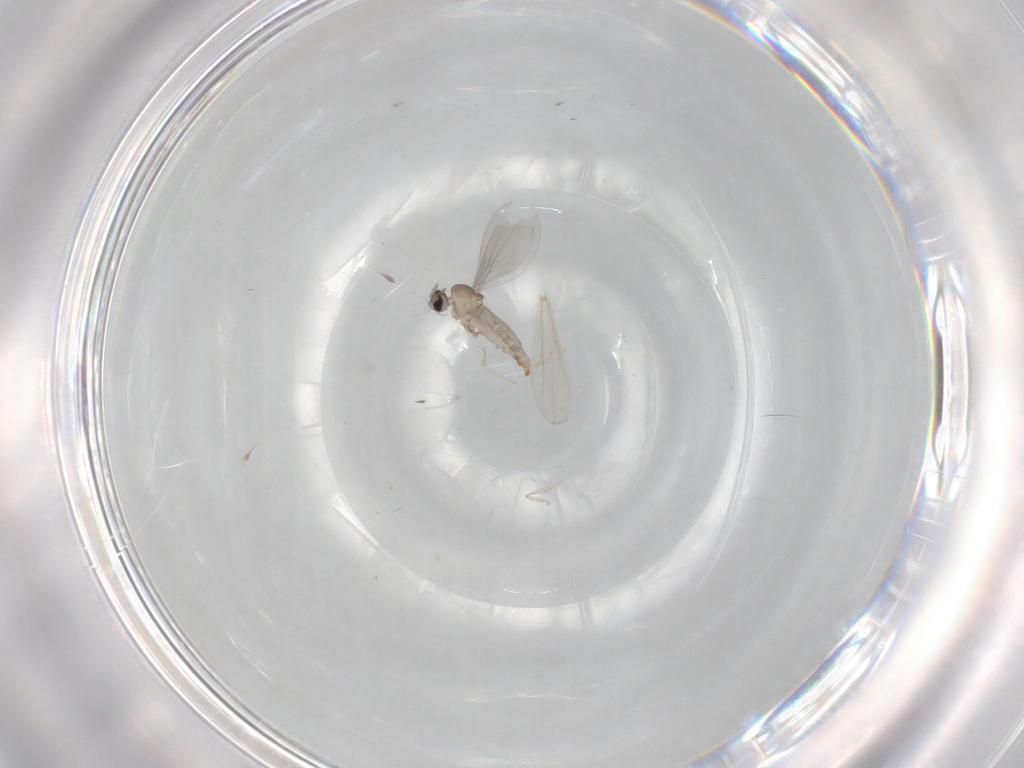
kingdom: Animalia
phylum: Arthropoda
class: Insecta
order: Diptera
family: Cecidomyiidae
